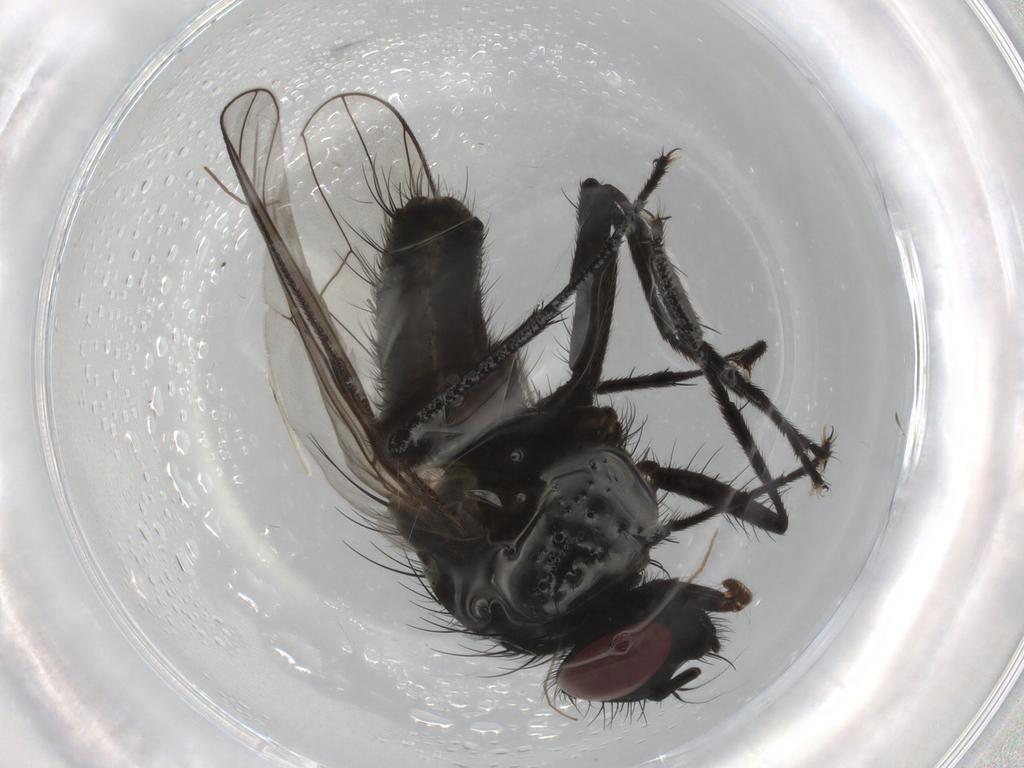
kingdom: Animalia
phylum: Arthropoda
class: Insecta
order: Diptera
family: Muscidae
